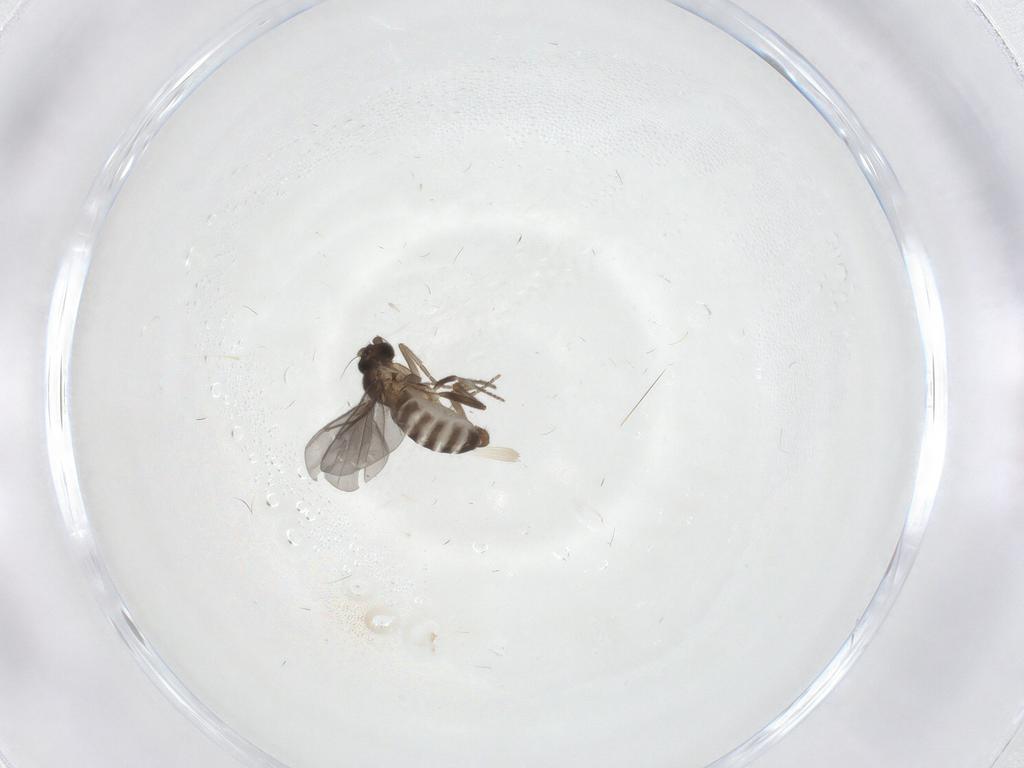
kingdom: Animalia
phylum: Arthropoda
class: Insecta
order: Diptera
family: Phoridae
